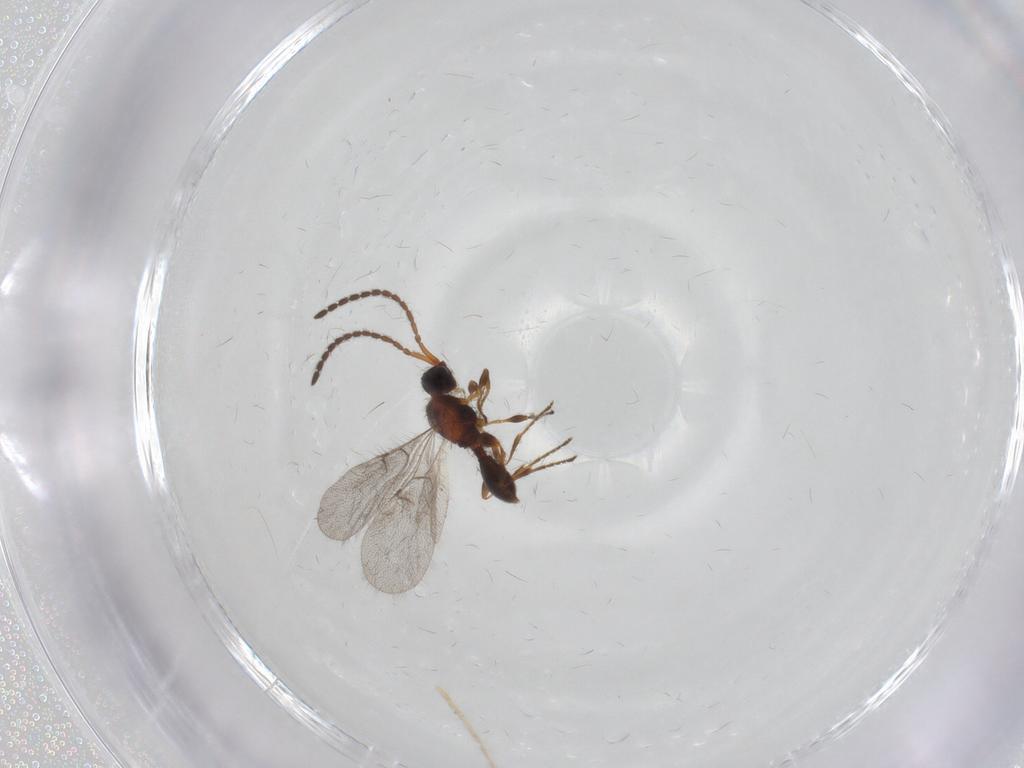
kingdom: Animalia
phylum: Arthropoda
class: Insecta
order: Hymenoptera
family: Diapriidae
